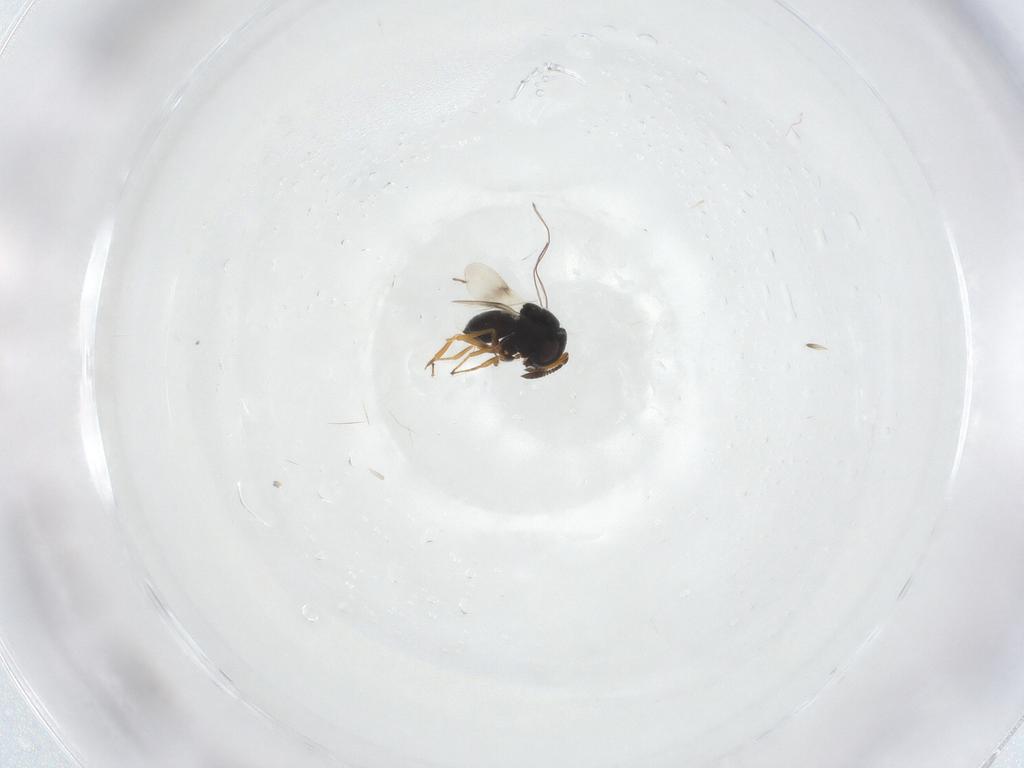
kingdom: Animalia
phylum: Arthropoda
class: Insecta
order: Hymenoptera
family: Scelionidae
